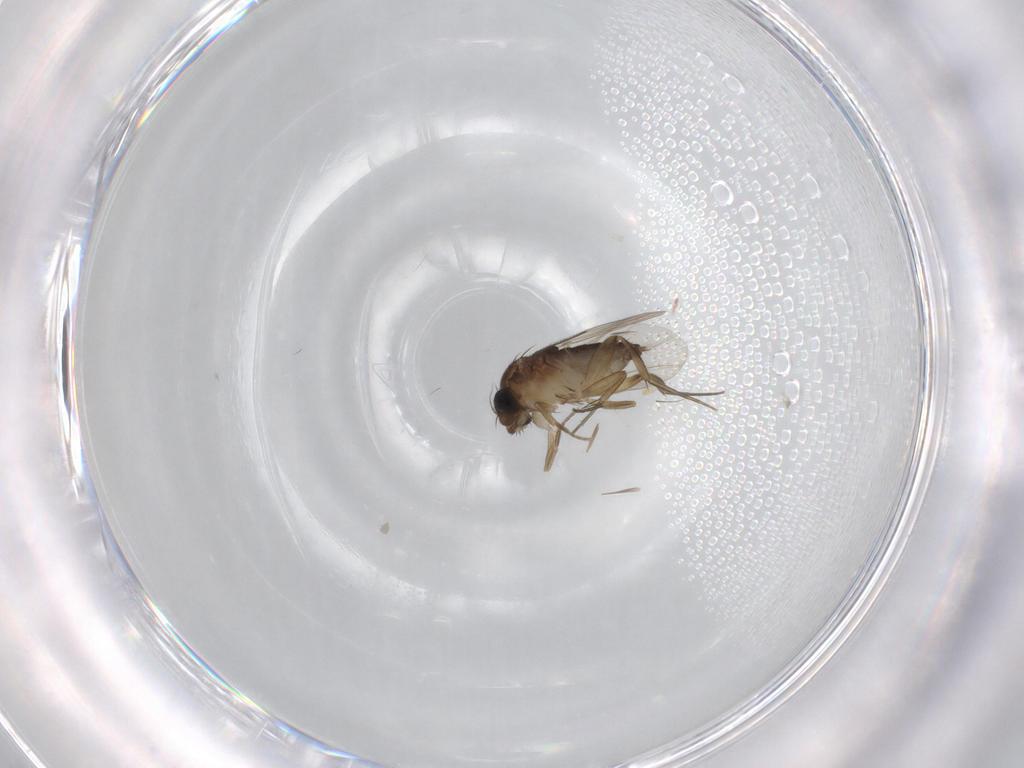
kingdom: Animalia
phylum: Arthropoda
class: Insecta
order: Diptera
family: Phoridae
